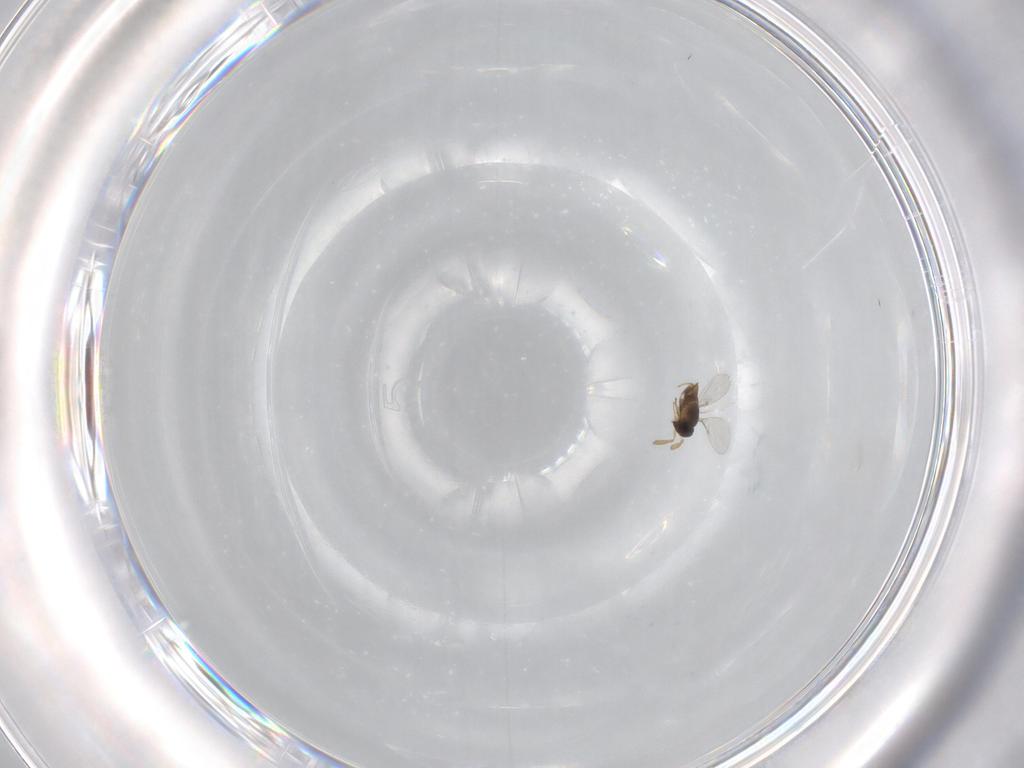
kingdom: Animalia
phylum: Arthropoda
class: Insecta
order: Hymenoptera
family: Encyrtidae
